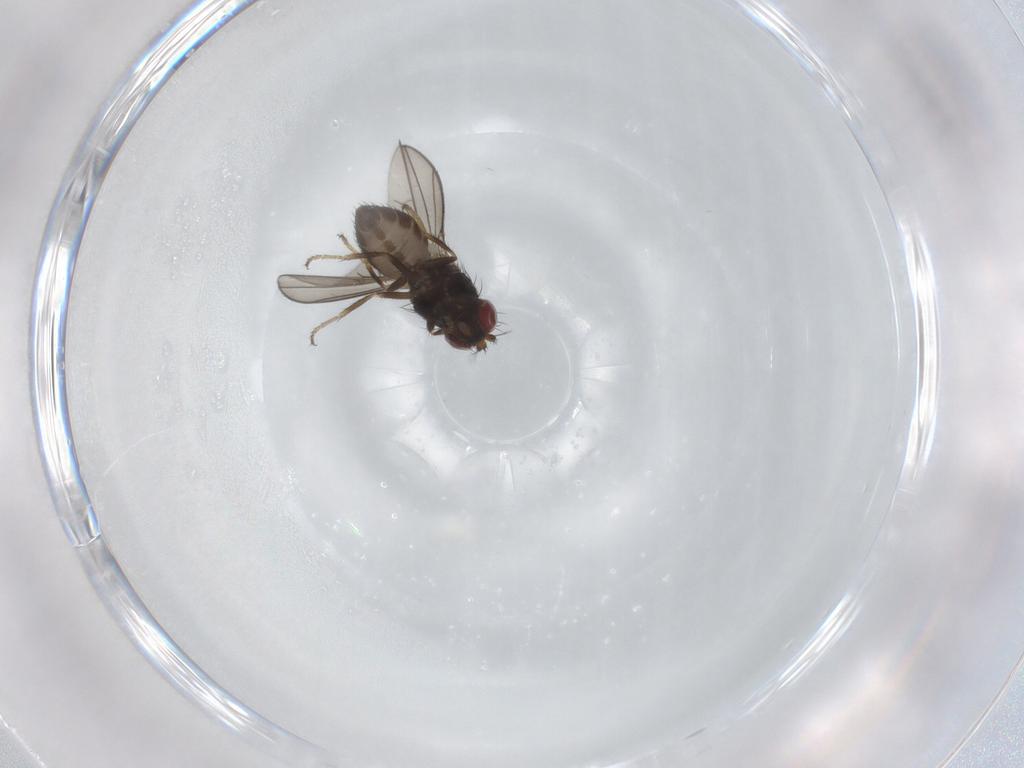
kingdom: Animalia
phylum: Arthropoda
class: Insecta
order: Diptera
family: Ephydridae
